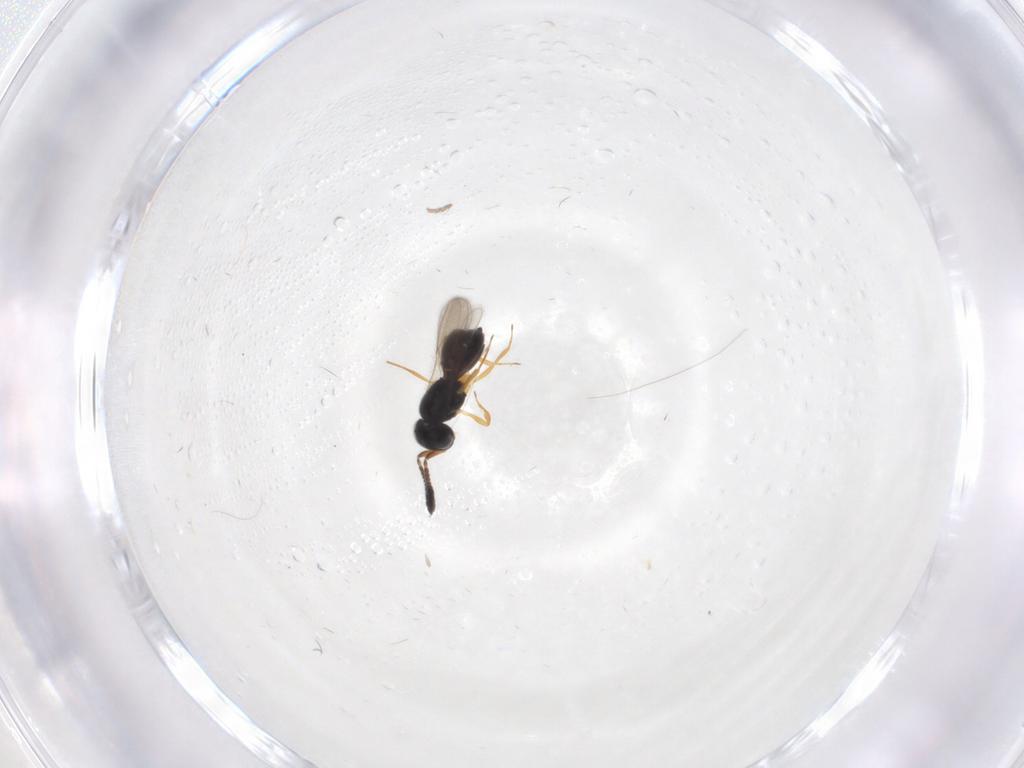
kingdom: Animalia
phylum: Arthropoda
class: Insecta
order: Hymenoptera
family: Scelionidae
